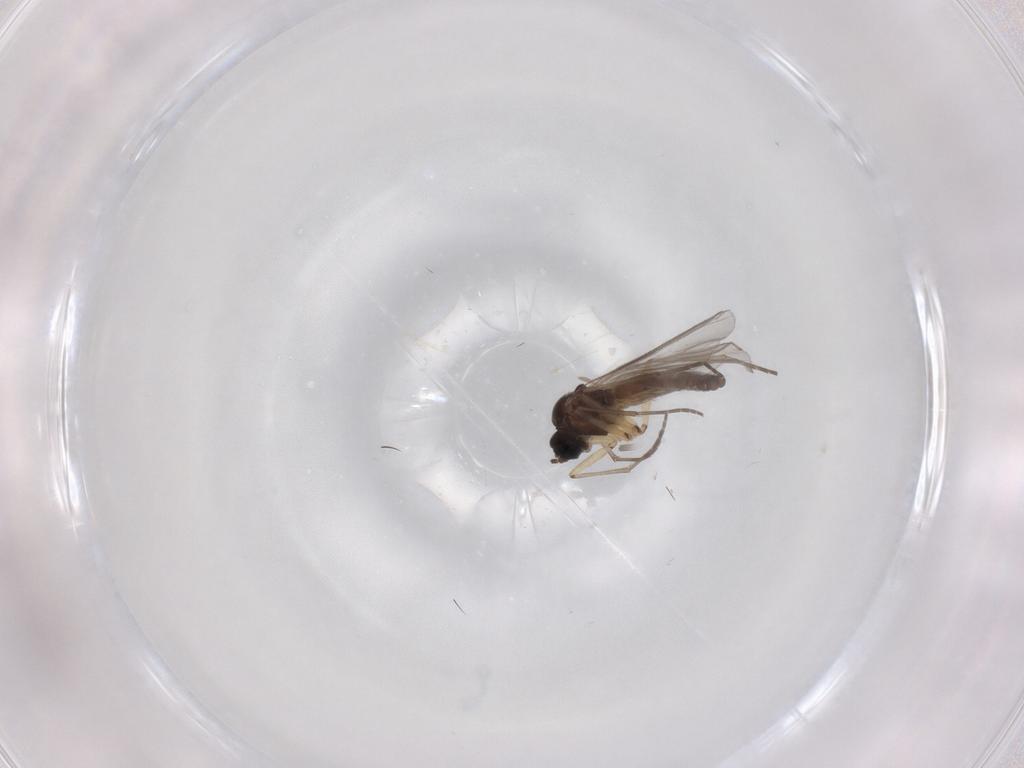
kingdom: Animalia
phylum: Arthropoda
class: Insecta
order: Diptera
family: Sciaridae
